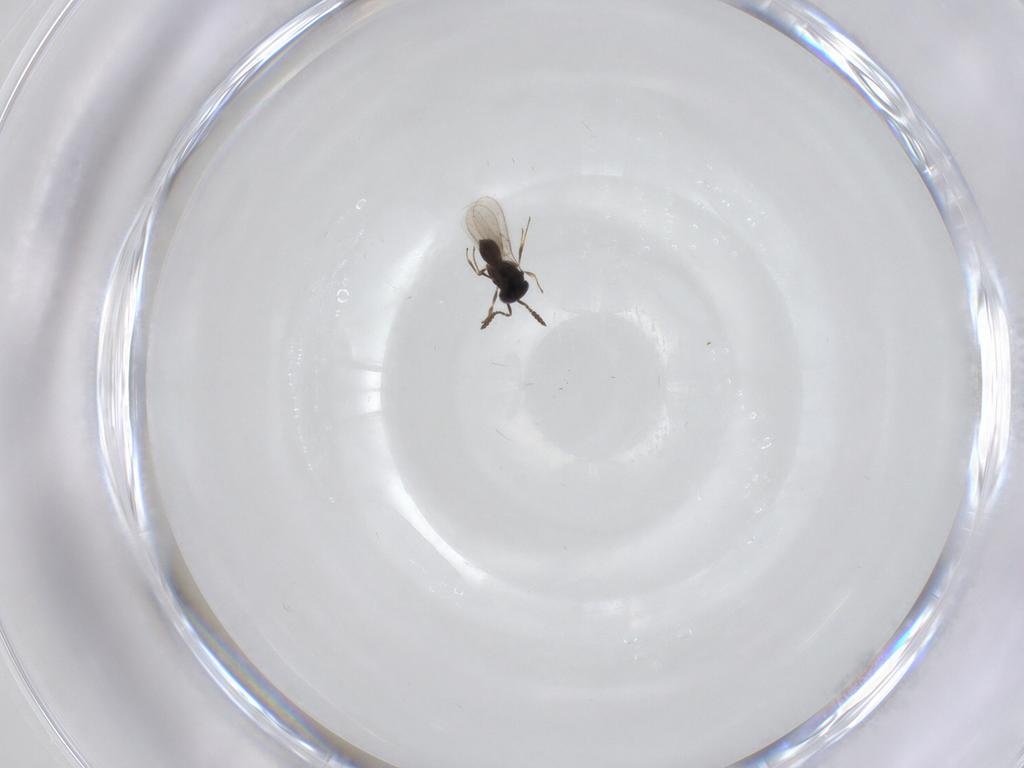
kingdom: Animalia
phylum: Arthropoda
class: Insecta
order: Hymenoptera
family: Scelionidae
